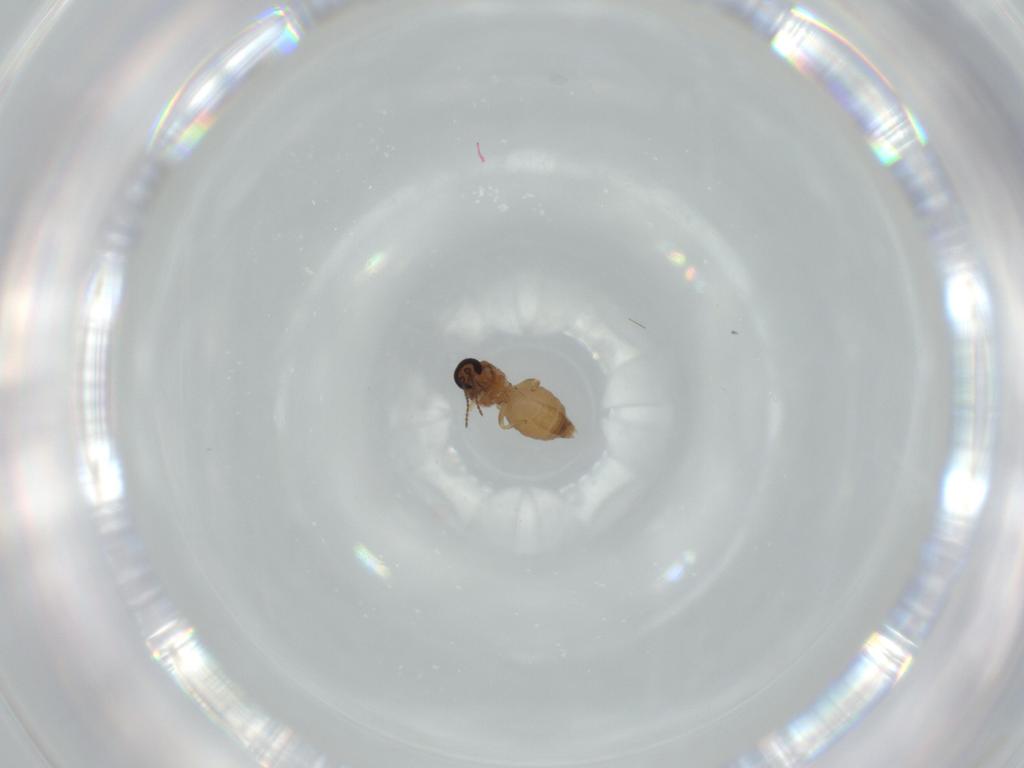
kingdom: Animalia
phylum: Arthropoda
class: Insecta
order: Diptera
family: Ceratopogonidae
